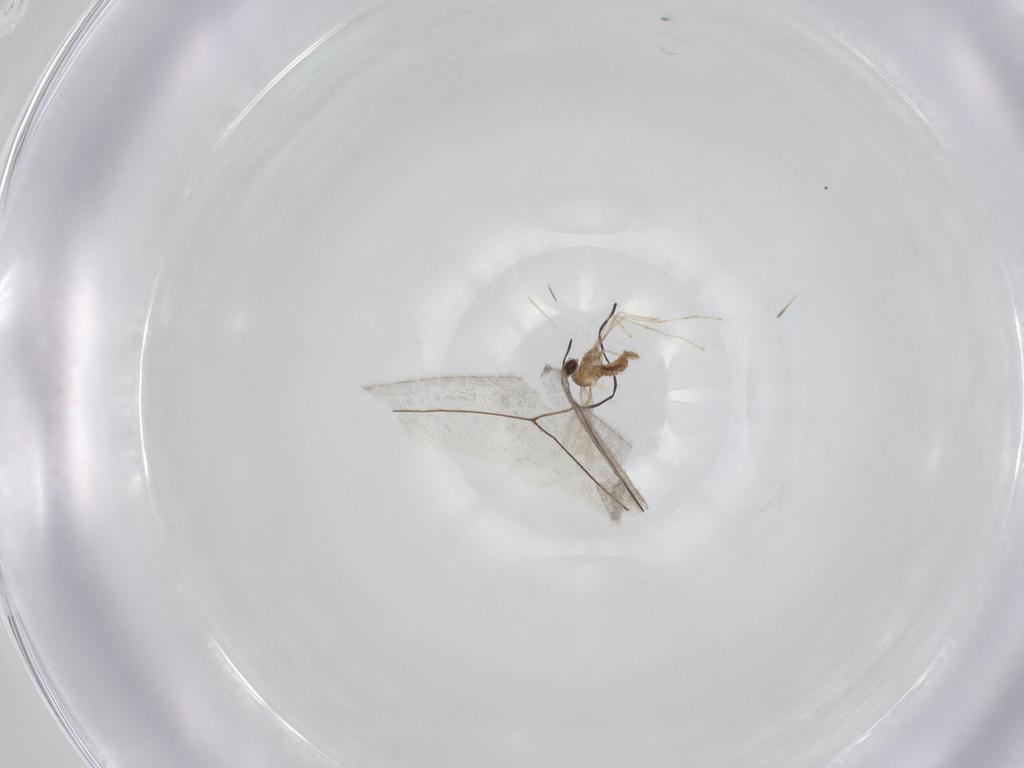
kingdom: Animalia
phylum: Arthropoda
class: Insecta
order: Diptera
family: Cecidomyiidae
